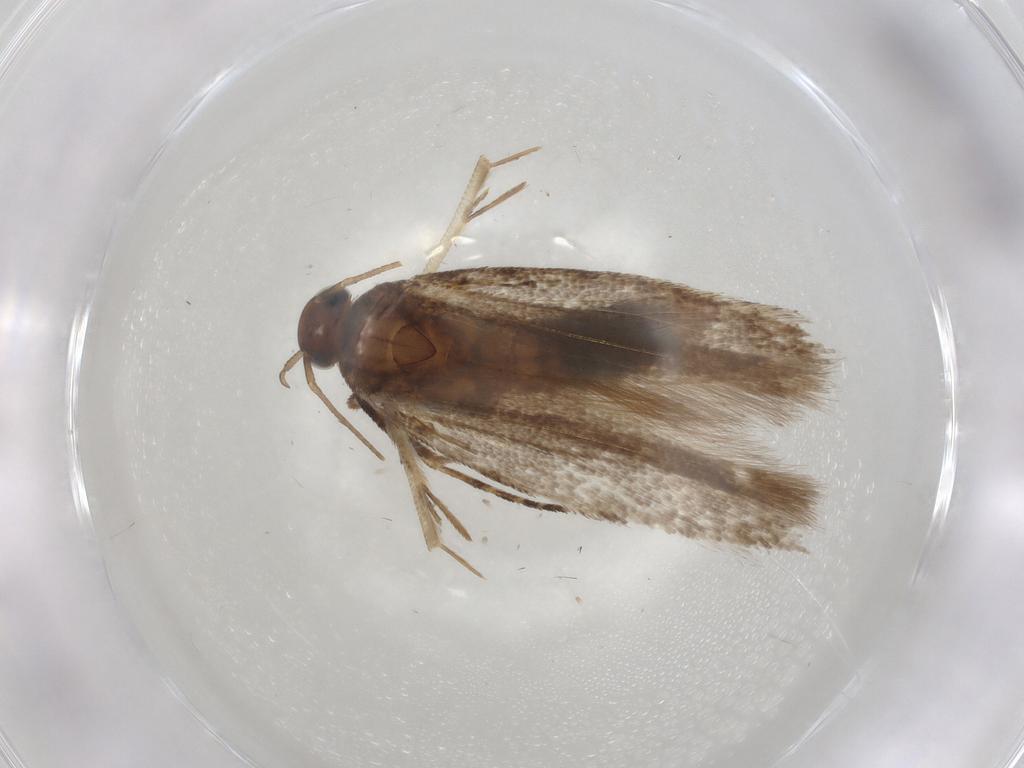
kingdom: Animalia
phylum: Arthropoda
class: Insecta
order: Lepidoptera
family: Gelechiidae
